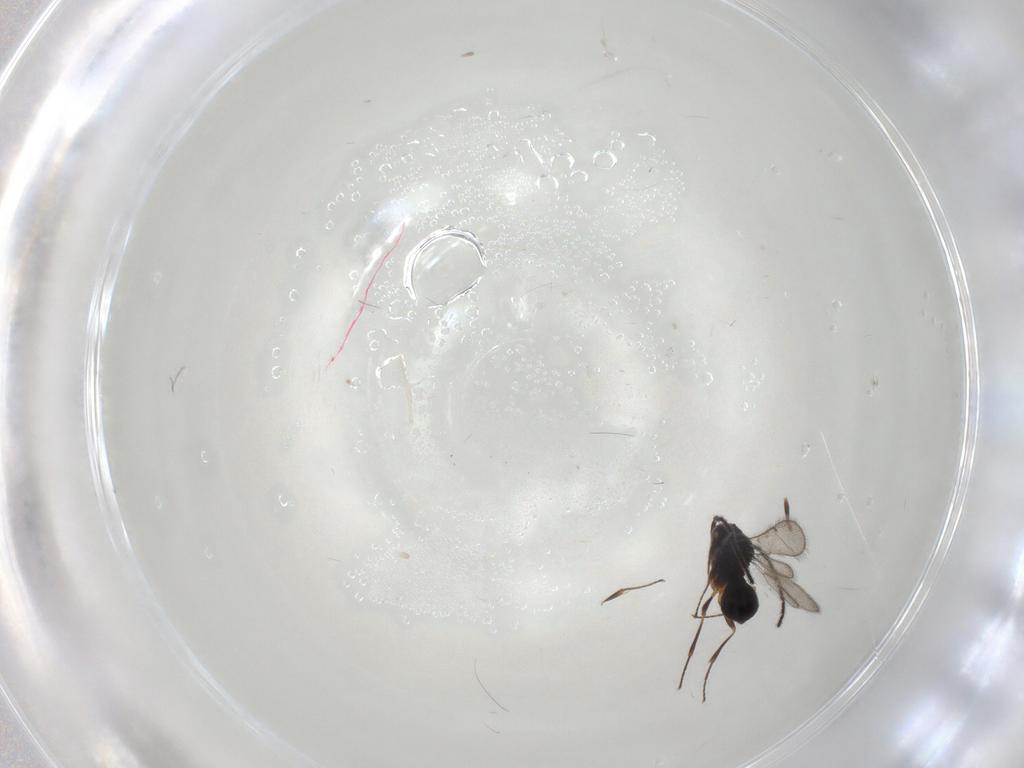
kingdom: Animalia
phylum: Arthropoda
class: Insecta
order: Hymenoptera
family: Scelionidae
